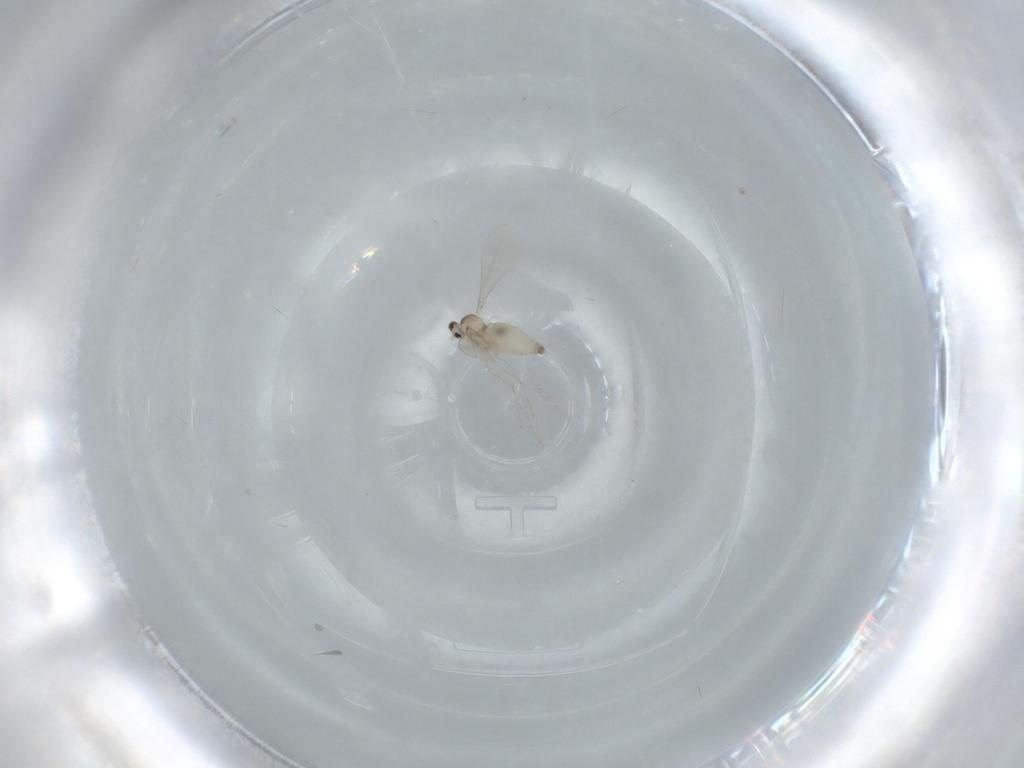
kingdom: Animalia
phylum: Arthropoda
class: Insecta
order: Diptera
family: Cecidomyiidae
